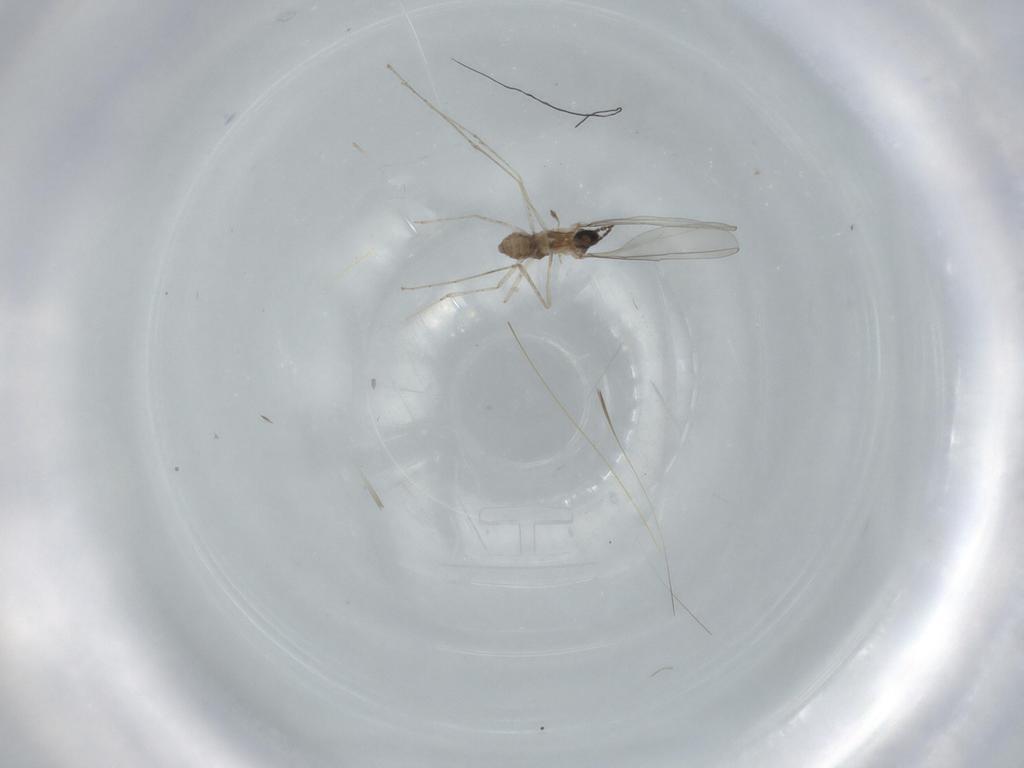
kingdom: Animalia
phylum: Arthropoda
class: Insecta
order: Diptera
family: Cecidomyiidae
